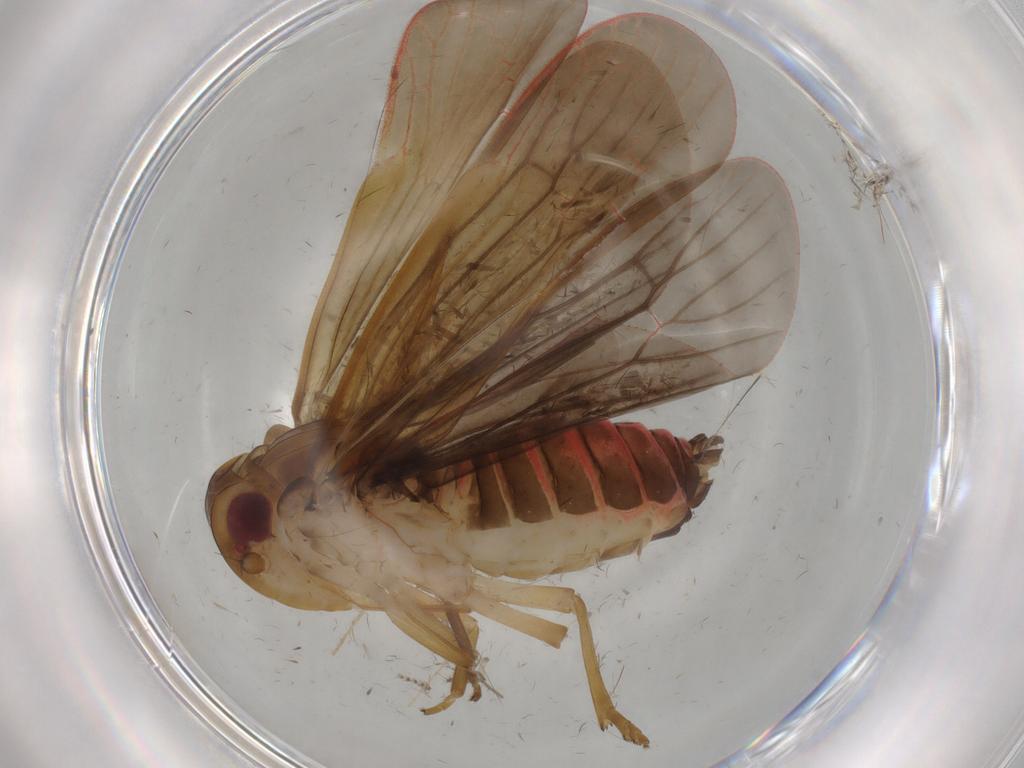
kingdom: Animalia
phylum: Arthropoda
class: Insecta
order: Hemiptera
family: Achilidae
